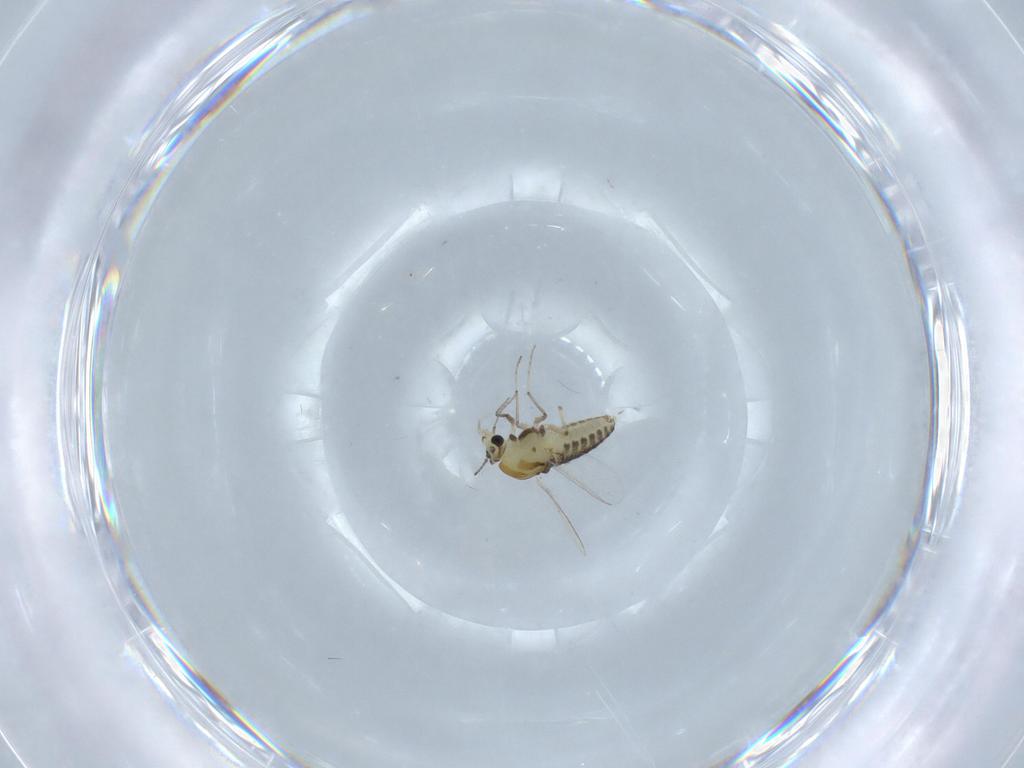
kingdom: Animalia
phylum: Arthropoda
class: Insecta
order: Diptera
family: Chironomidae
